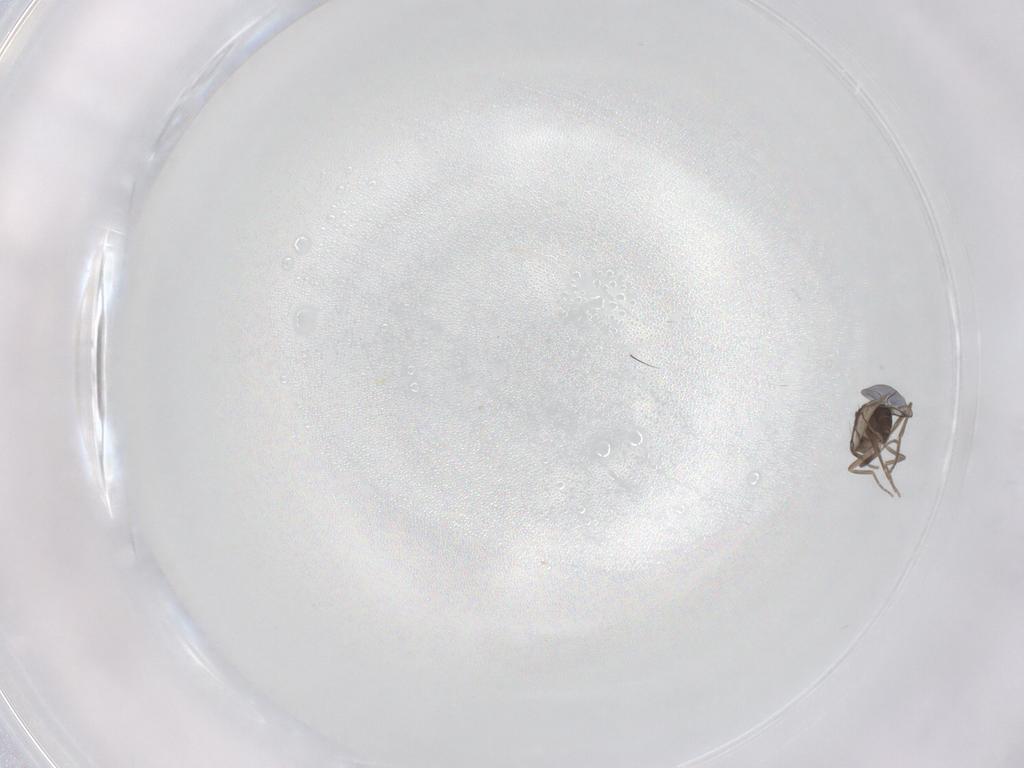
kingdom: Animalia
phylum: Arthropoda
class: Insecta
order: Diptera
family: Phoridae
